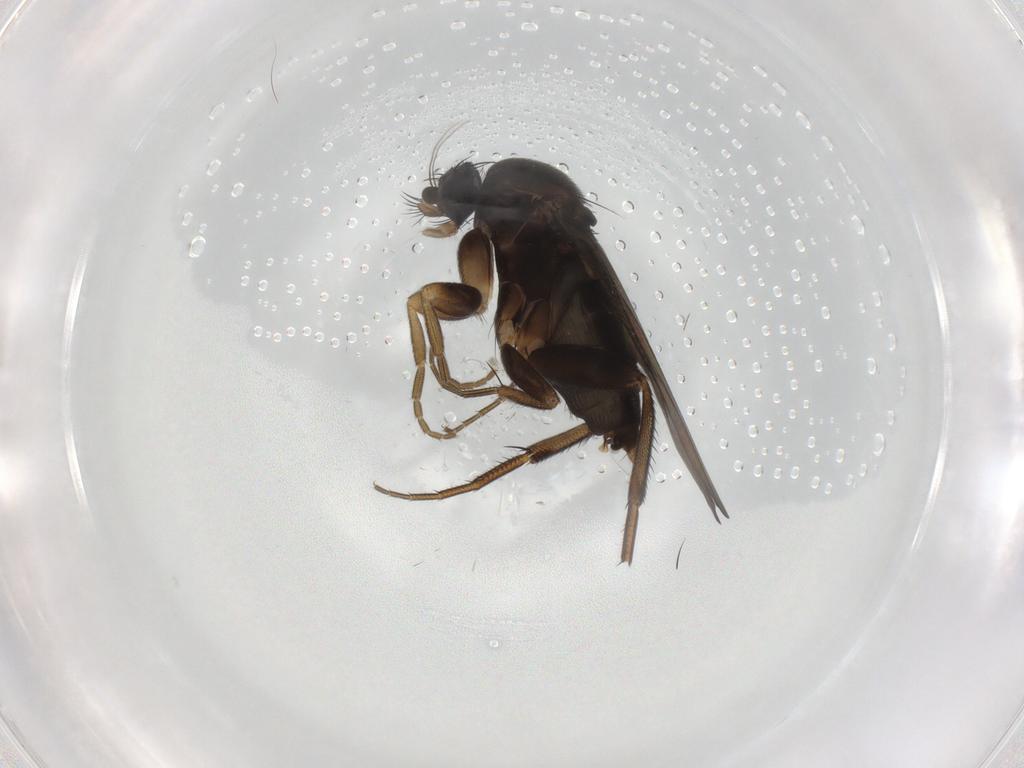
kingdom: Animalia
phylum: Arthropoda
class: Insecta
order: Diptera
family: Phoridae
